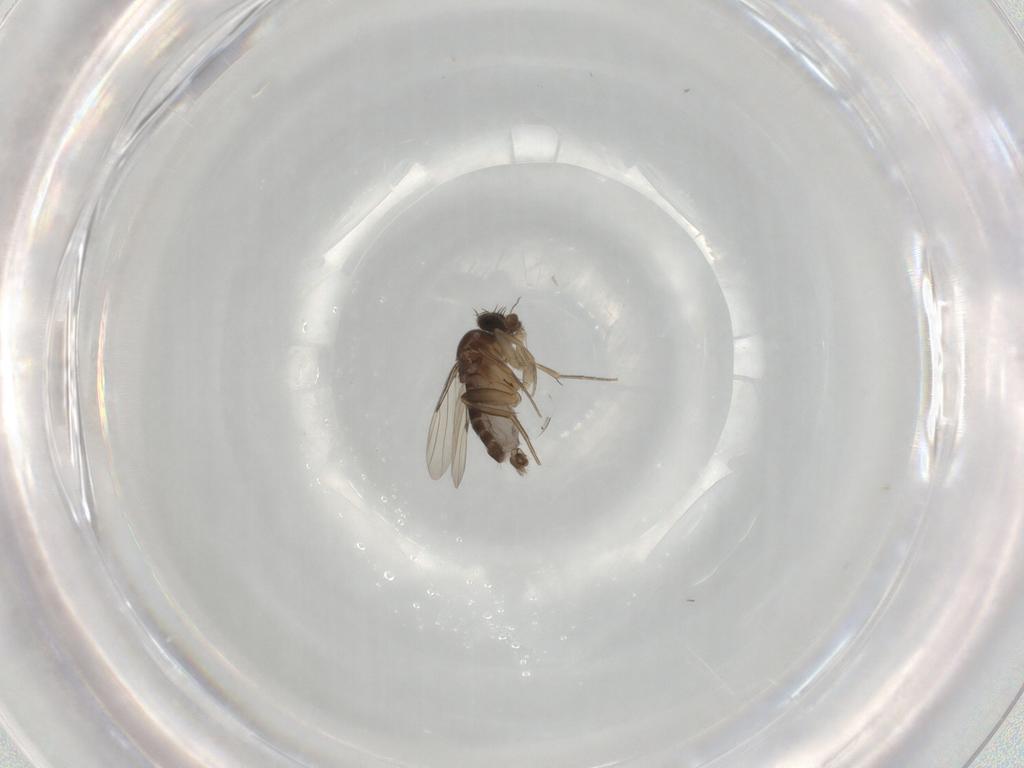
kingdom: Animalia
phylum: Arthropoda
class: Insecta
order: Diptera
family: Phoridae
